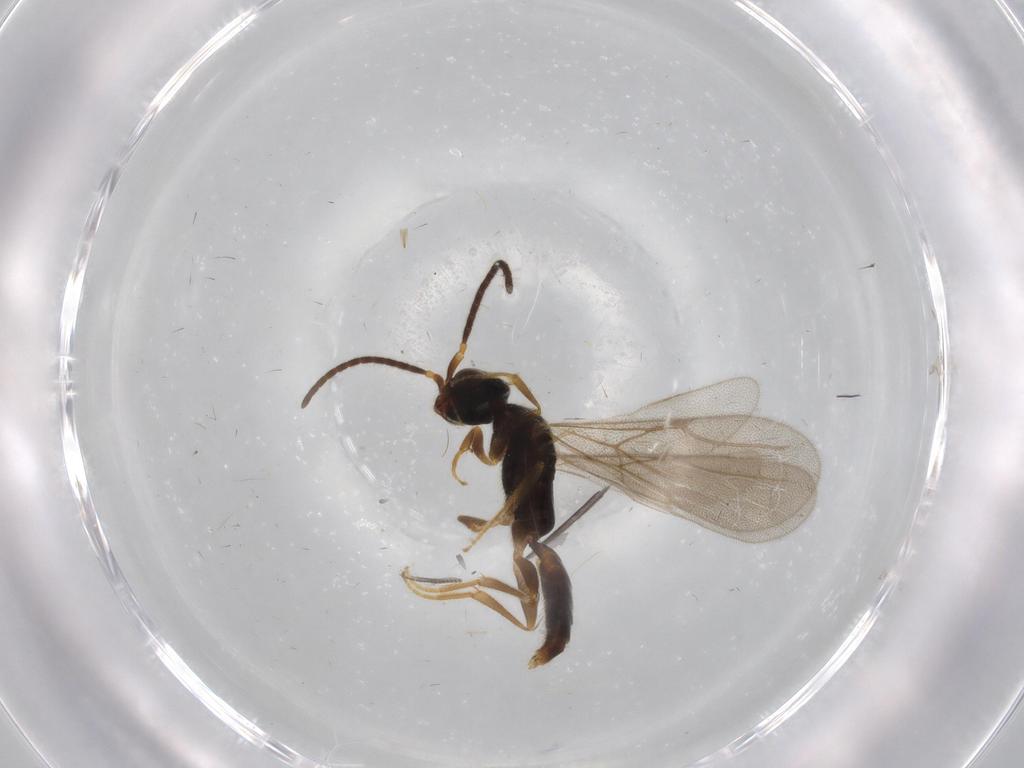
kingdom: Animalia
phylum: Arthropoda
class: Insecta
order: Hymenoptera
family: Bethylidae
